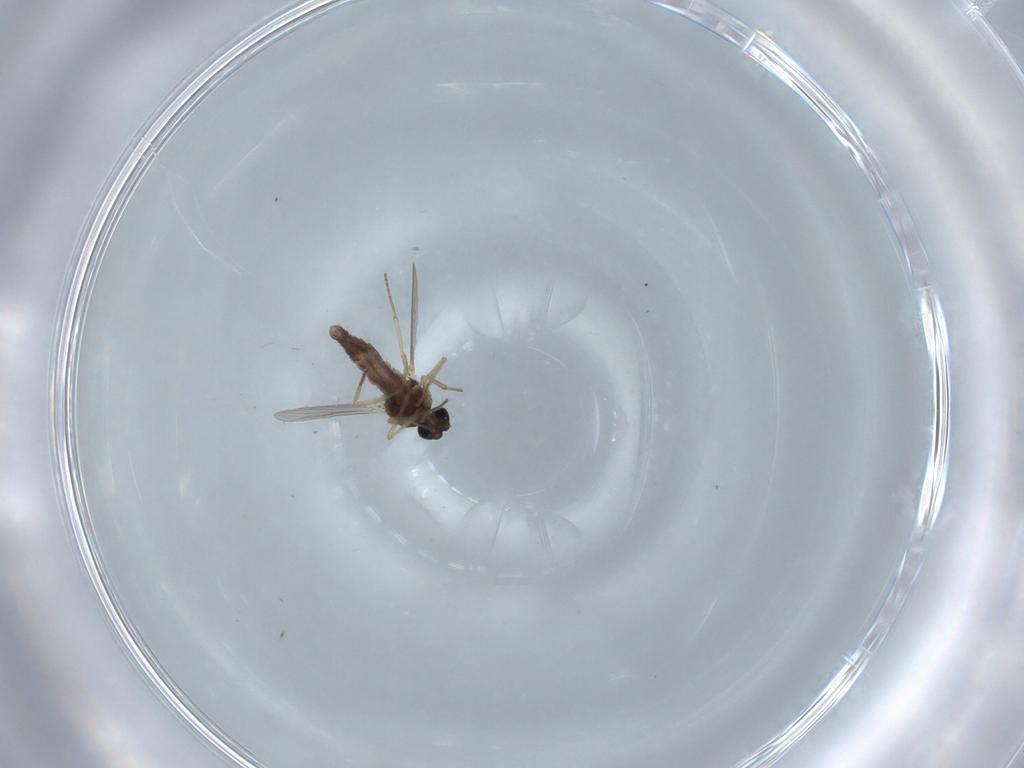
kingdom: Animalia
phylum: Arthropoda
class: Insecta
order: Diptera
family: Ceratopogonidae
